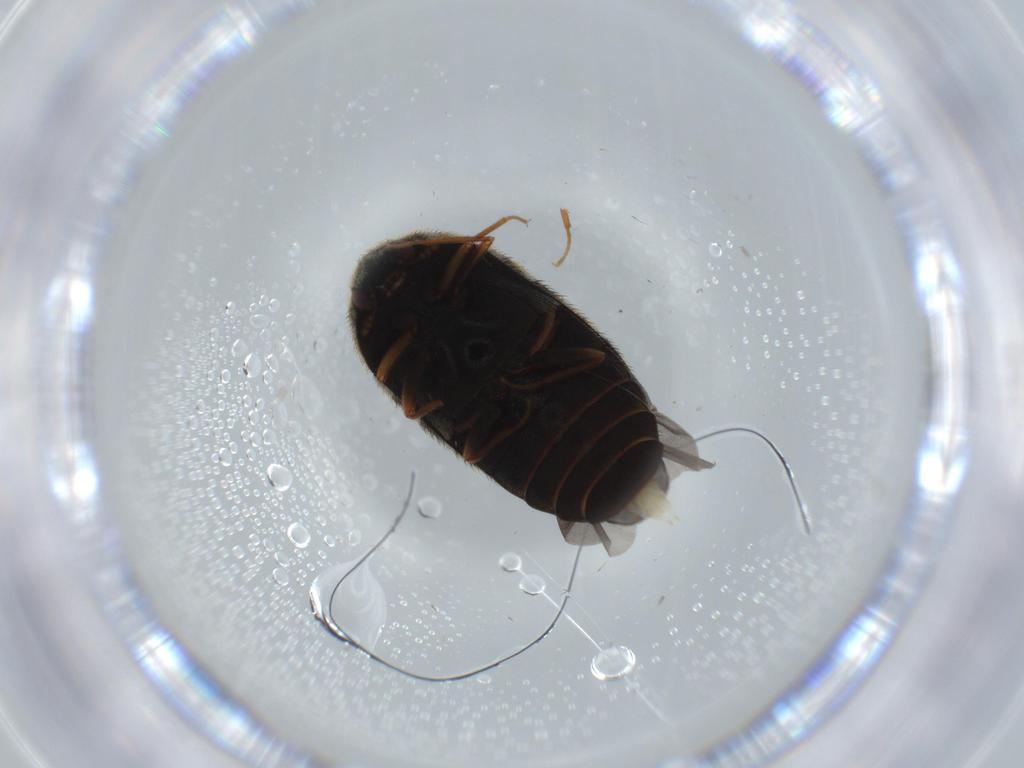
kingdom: Animalia
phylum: Arthropoda
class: Insecta
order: Coleoptera
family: Dermestidae
